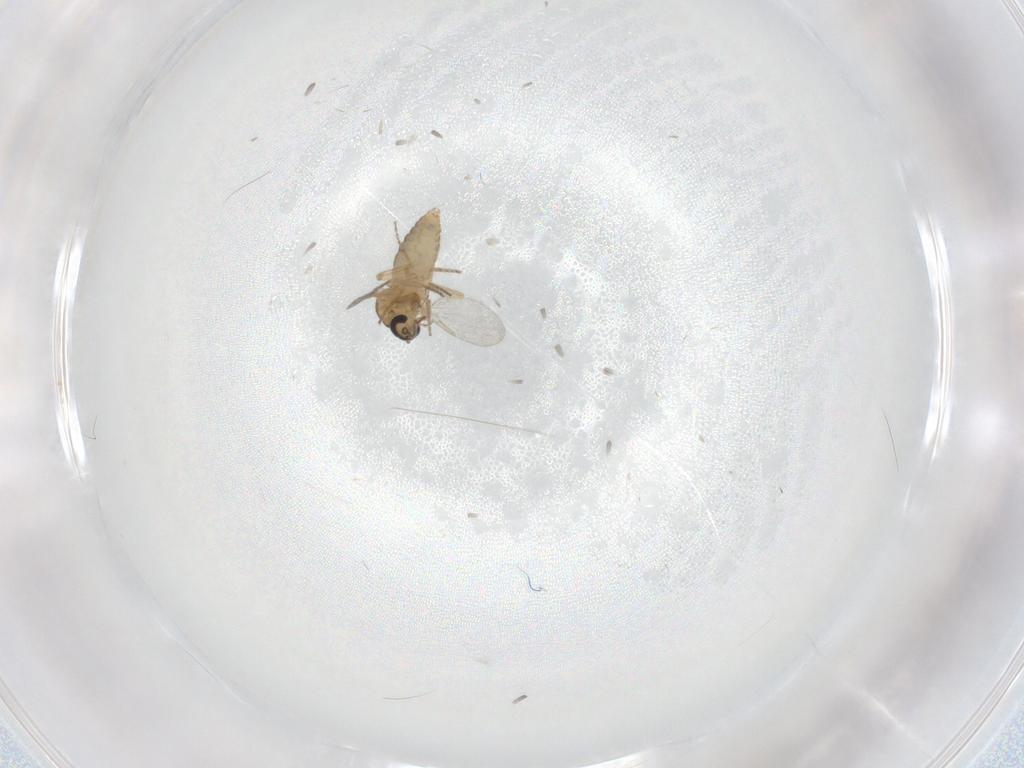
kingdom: Animalia
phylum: Arthropoda
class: Insecta
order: Diptera
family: Ceratopogonidae
